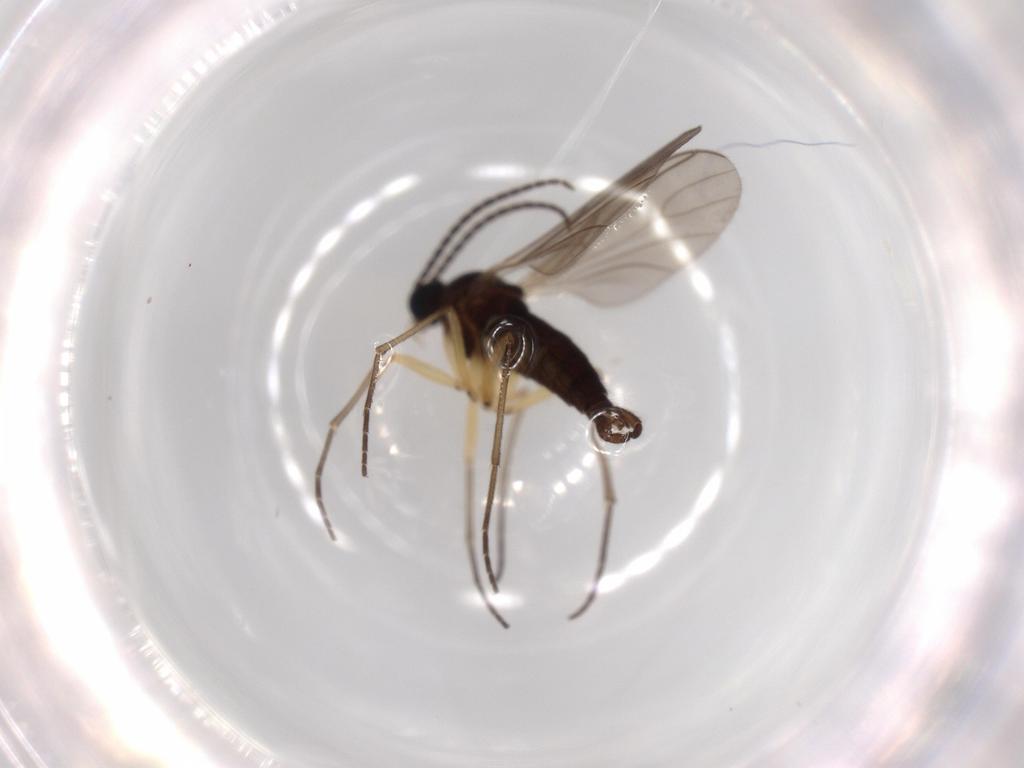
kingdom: Animalia
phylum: Arthropoda
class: Insecta
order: Diptera
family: Sciaridae
